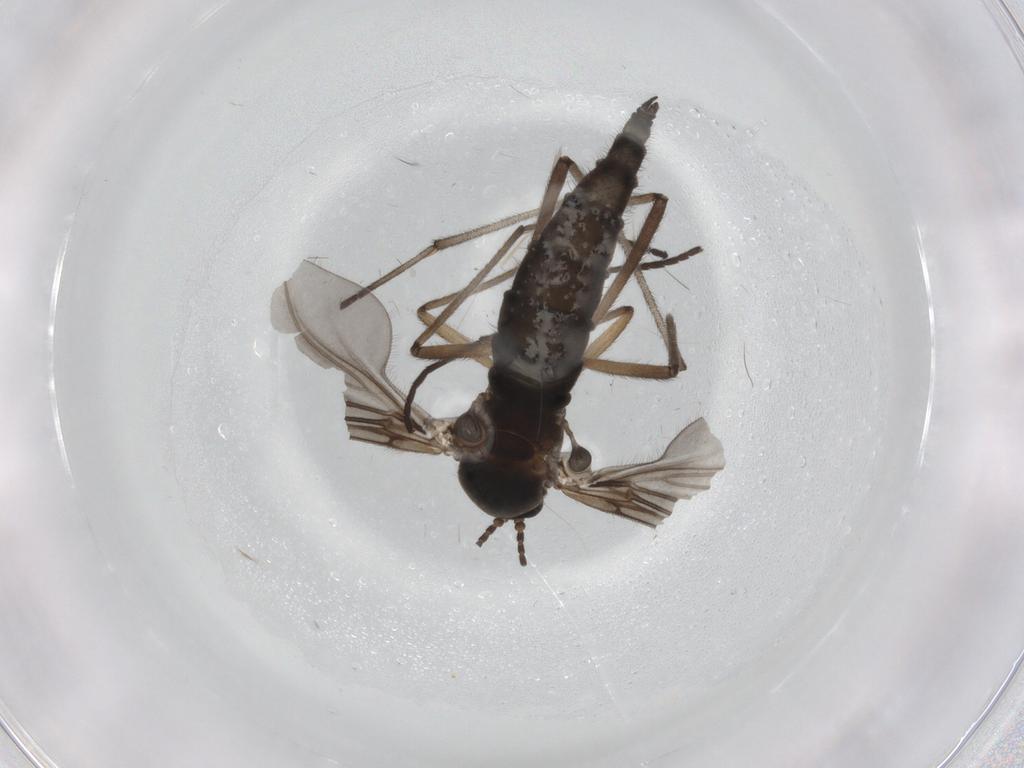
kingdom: Animalia
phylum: Arthropoda
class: Insecta
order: Diptera
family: Sciaridae
